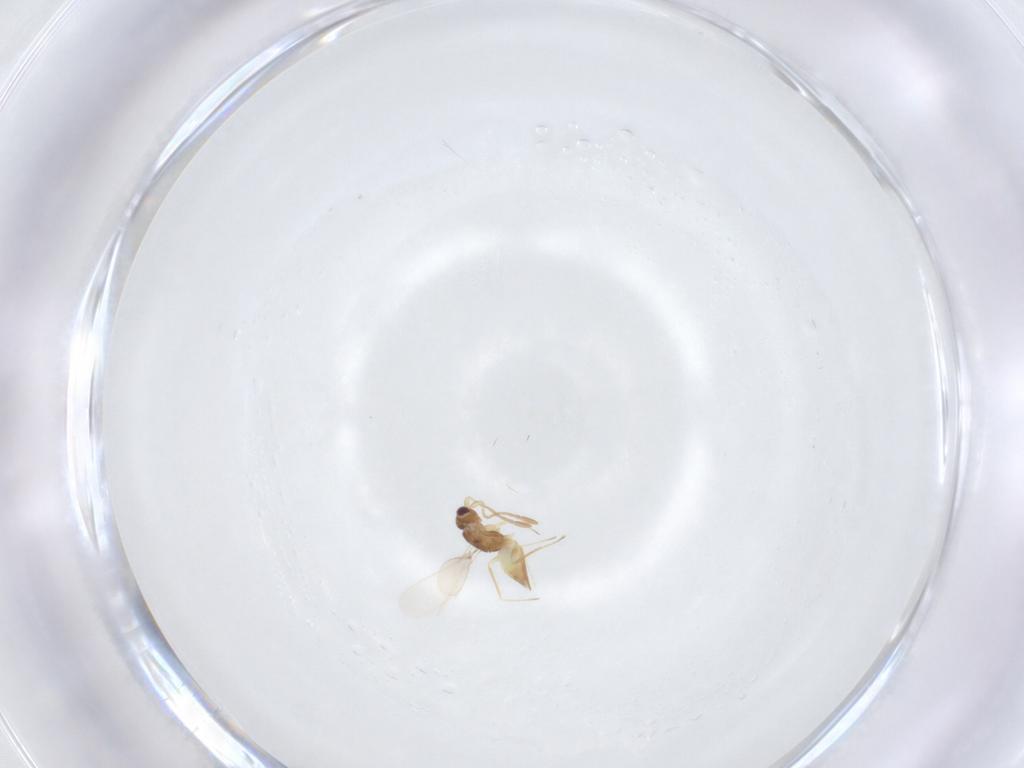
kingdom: Animalia
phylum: Arthropoda
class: Insecta
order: Hymenoptera
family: Mymaridae
